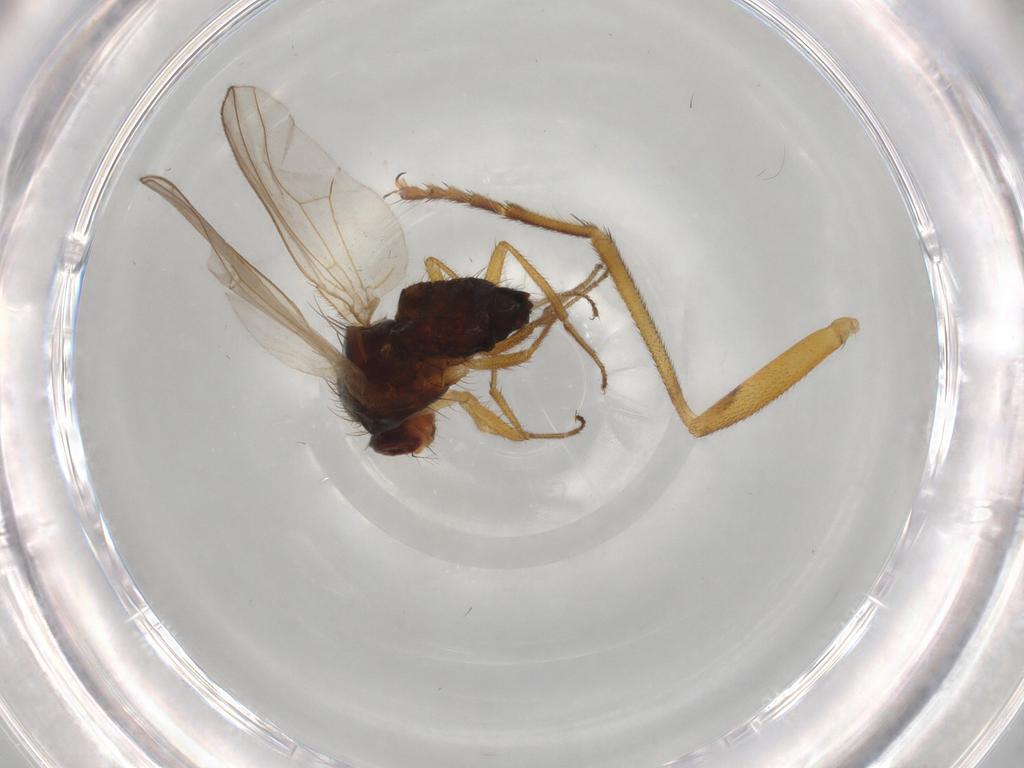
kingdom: Animalia
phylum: Arthropoda
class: Insecta
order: Diptera
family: Drosophilidae
